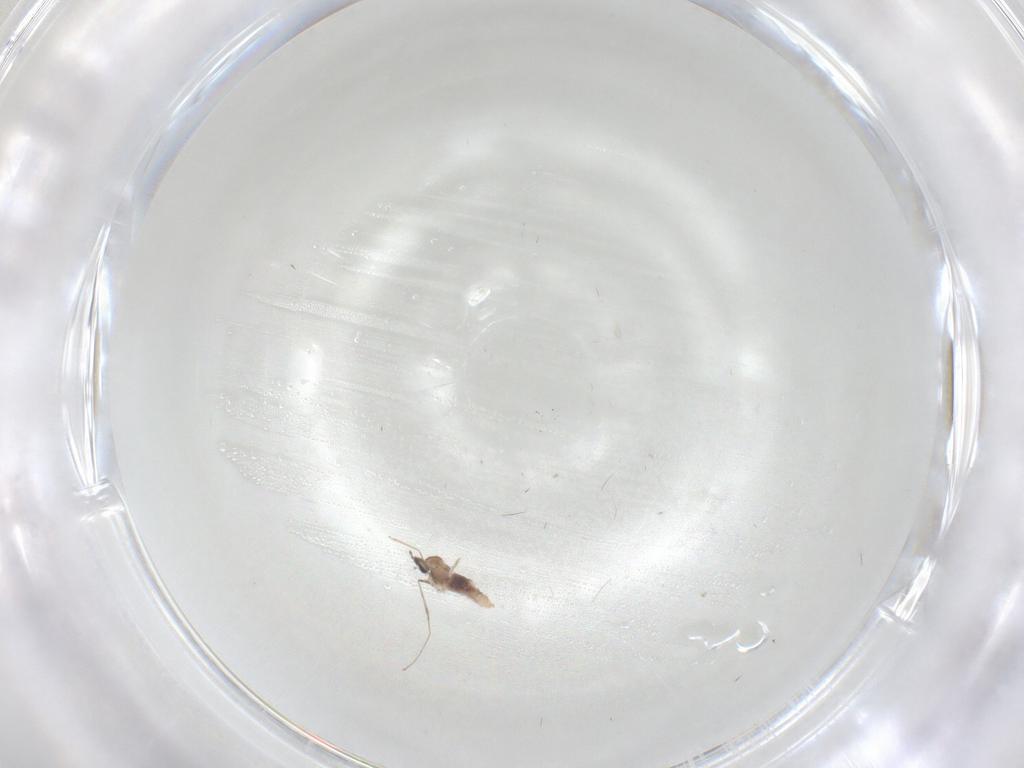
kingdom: Animalia
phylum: Arthropoda
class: Insecta
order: Diptera
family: Cecidomyiidae
